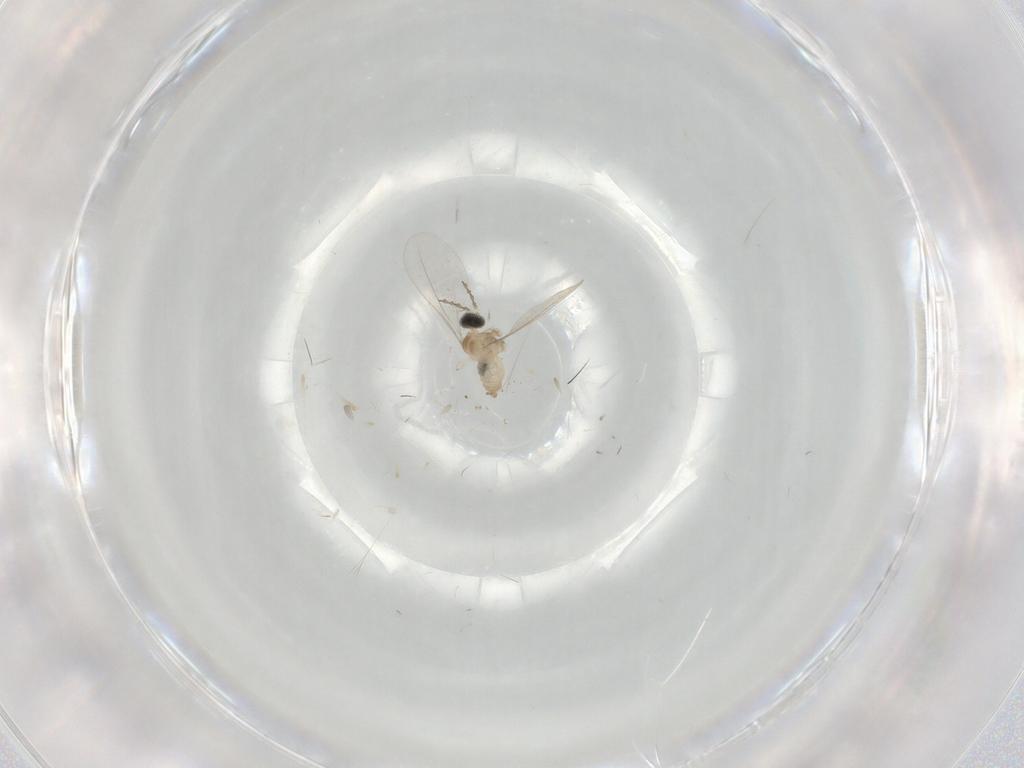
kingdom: Animalia
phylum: Arthropoda
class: Insecta
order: Diptera
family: Cecidomyiidae
